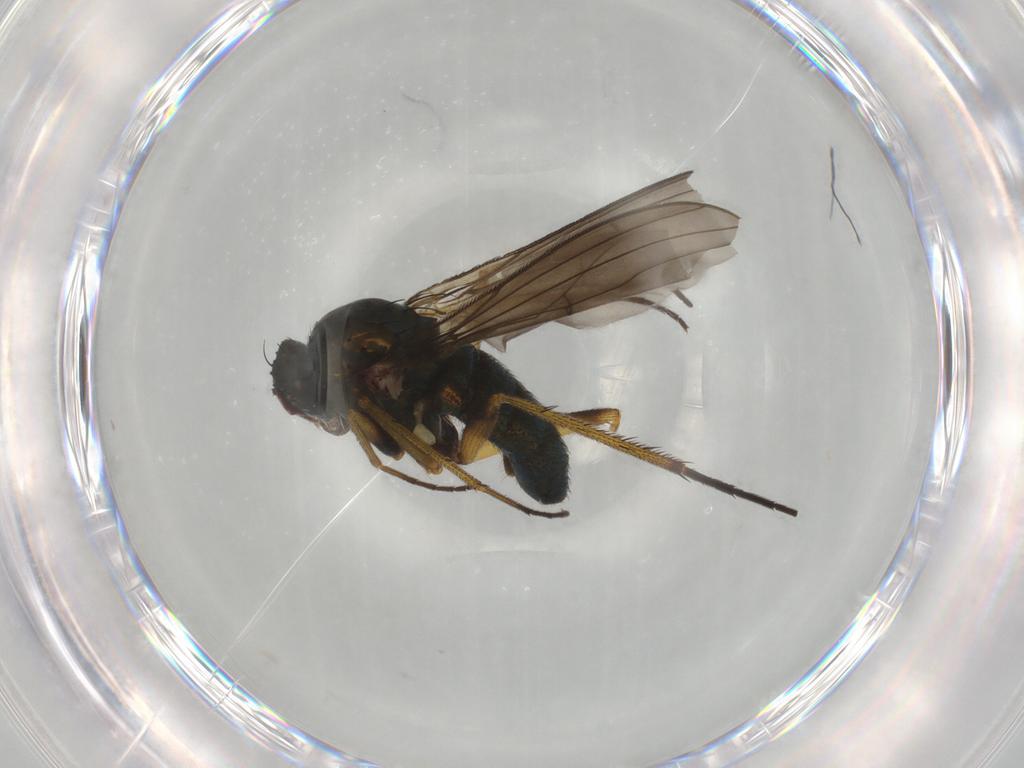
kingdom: Animalia
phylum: Arthropoda
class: Insecta
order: Diptera
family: Dolichopodidae
